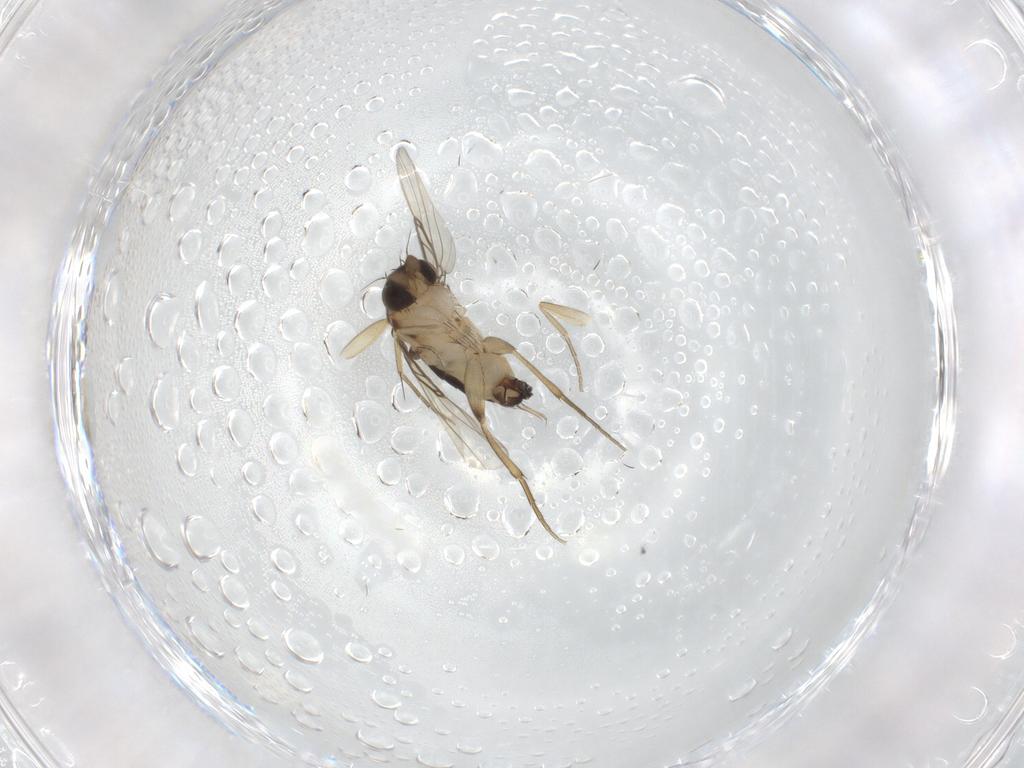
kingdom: Animalia
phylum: Arthropoda
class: Insecta
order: Diptera
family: Phoridae
